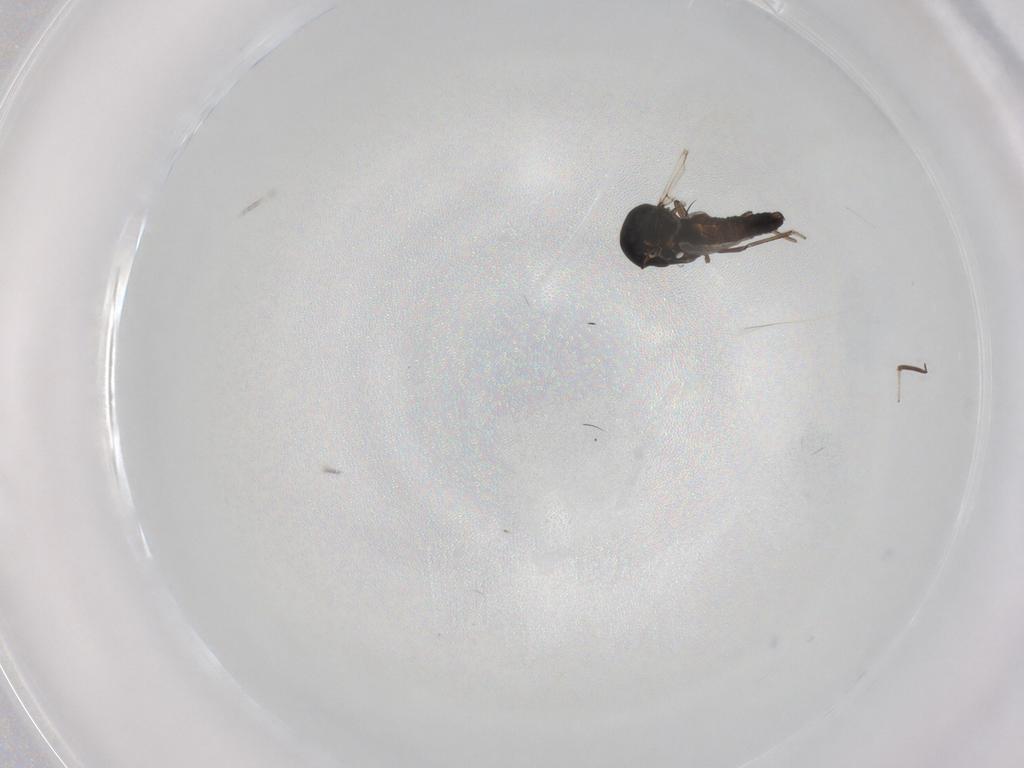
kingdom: Animalia
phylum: Arthropoda
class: Insecta
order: Diptera
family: Ceratopogonidae
